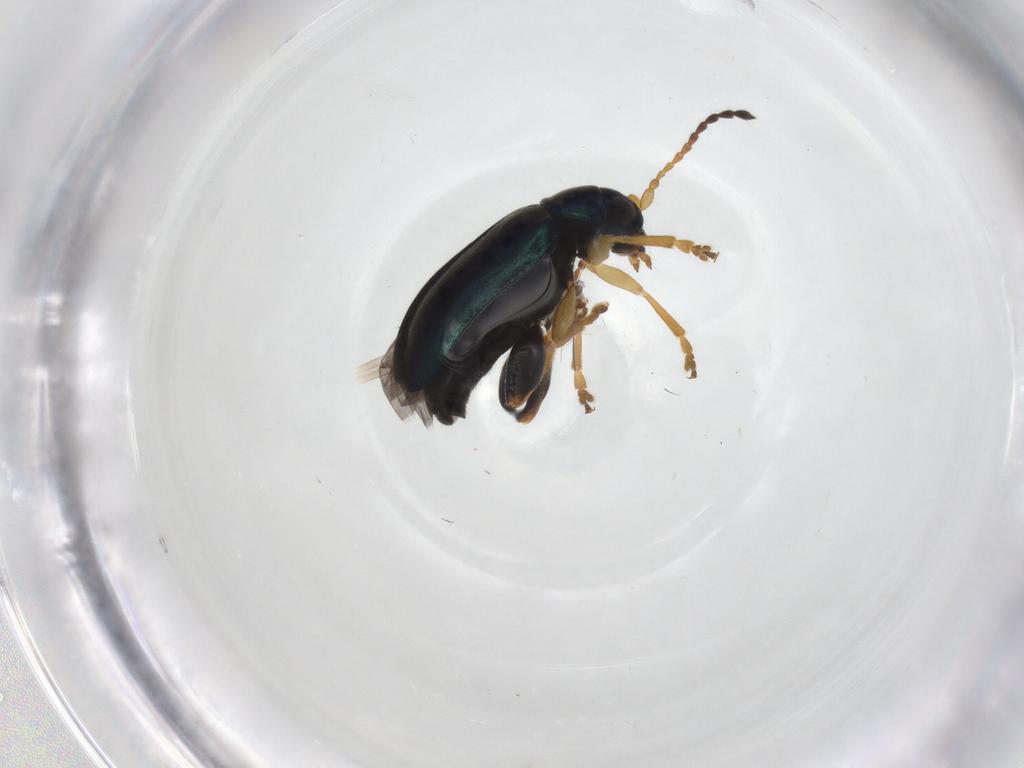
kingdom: Animalia
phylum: Arthropoda
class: Insecta
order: Coleoptera
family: Chrysomelidae
